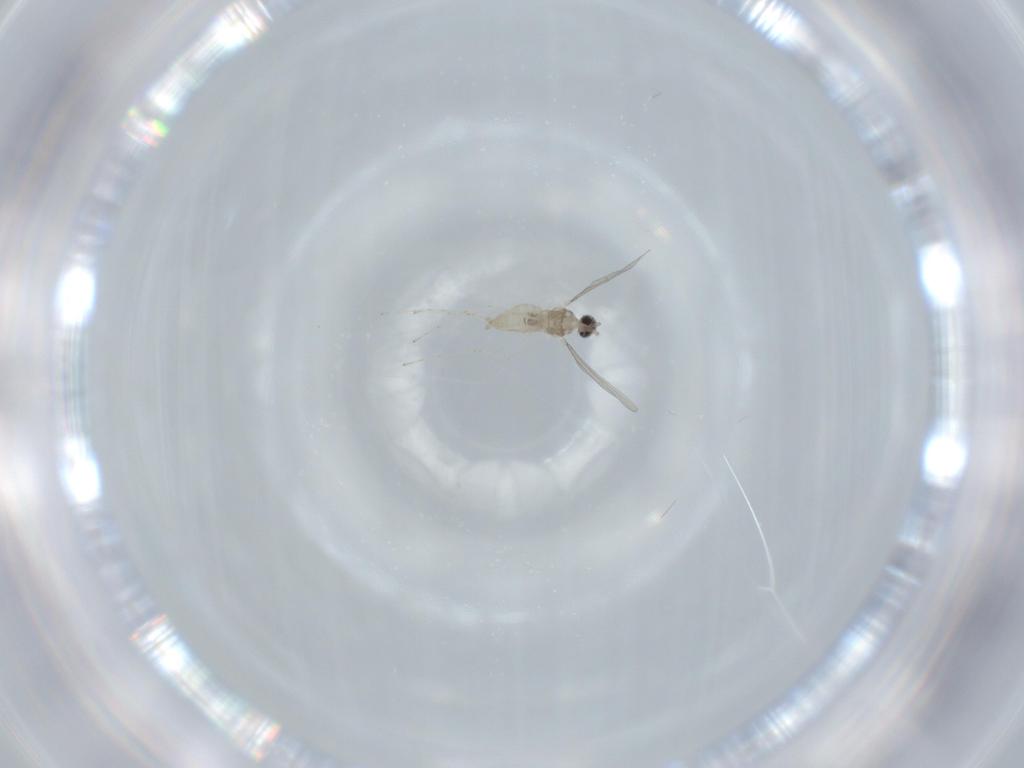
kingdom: Animalia
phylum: Arthropoda
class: Insecta
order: Diptera
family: Cecidomyiidae
